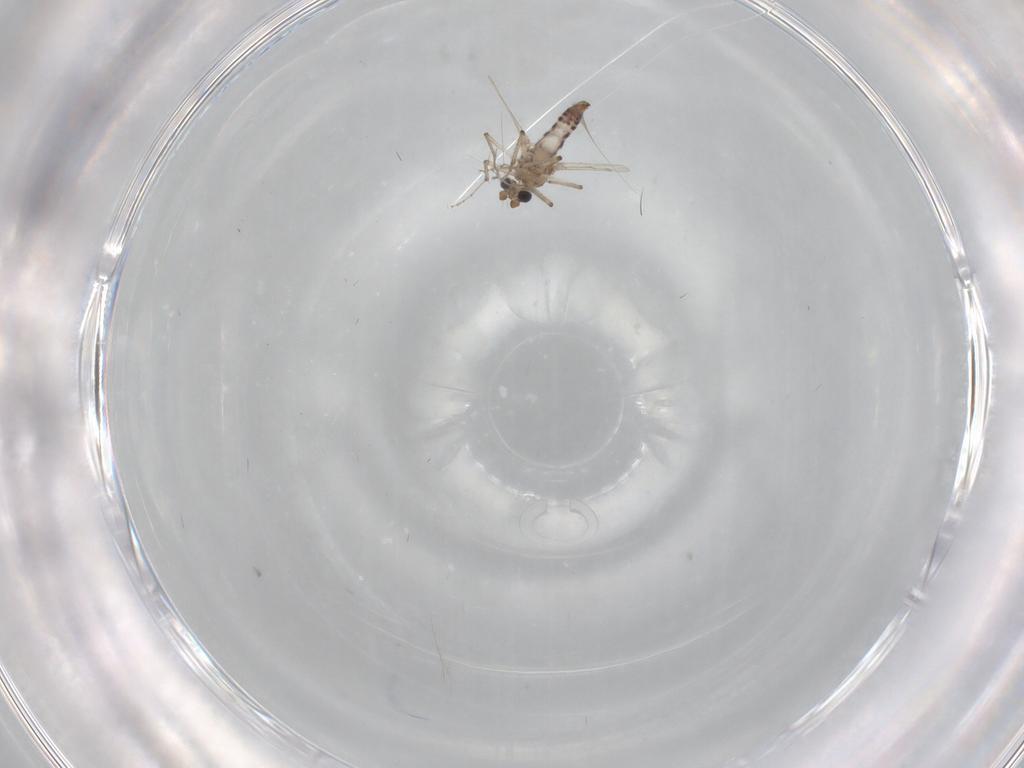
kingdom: Animalia
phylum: Arthropoda
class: Insecta
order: Diptera
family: Ceratopogonidae
